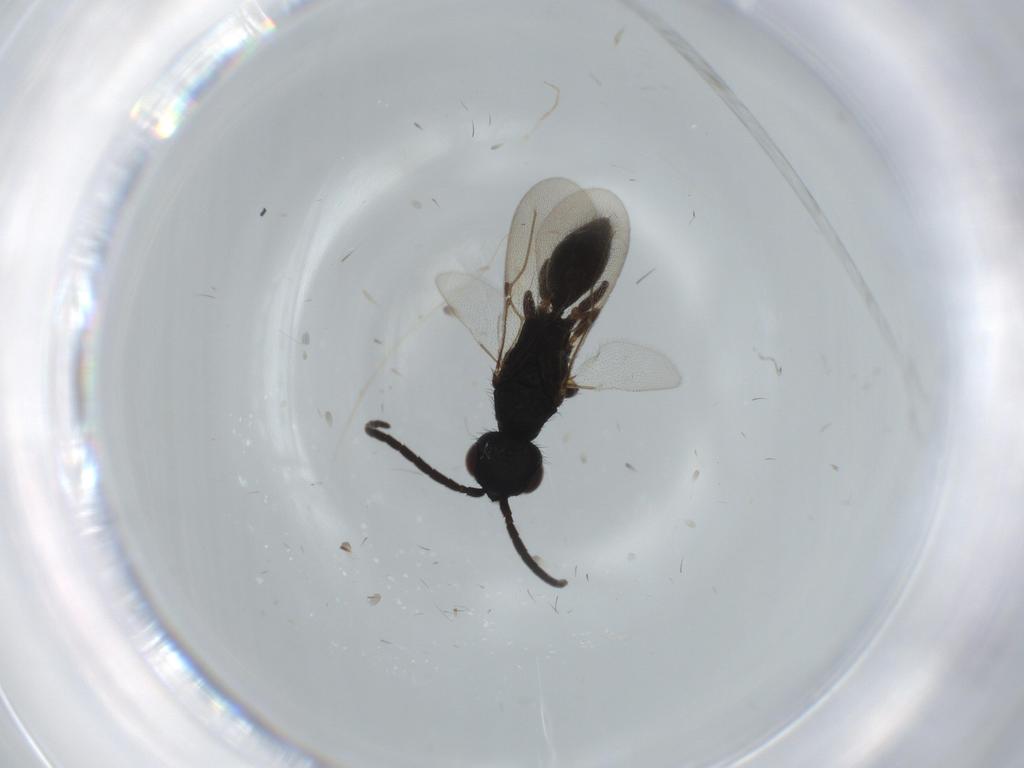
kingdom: Animalia
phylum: Arthropoda
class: Insecta
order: Hymenoptera
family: Bethylidae
